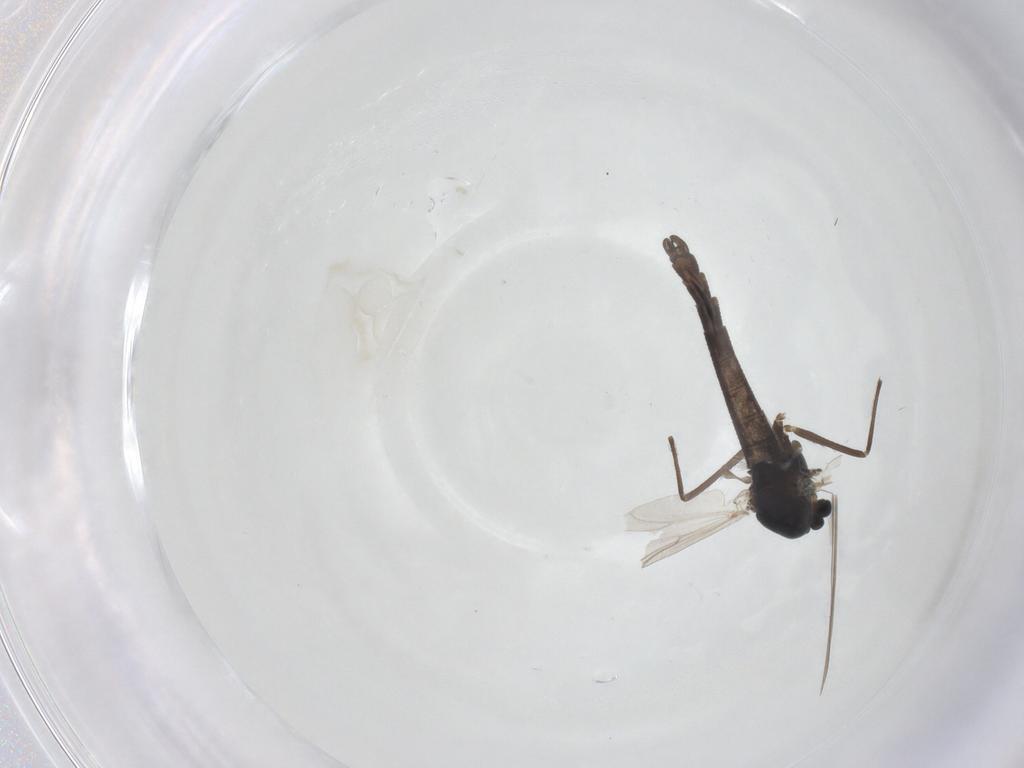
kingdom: Animalia
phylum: Arthropoda
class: Insecta
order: Diptera
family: Chironomidae
